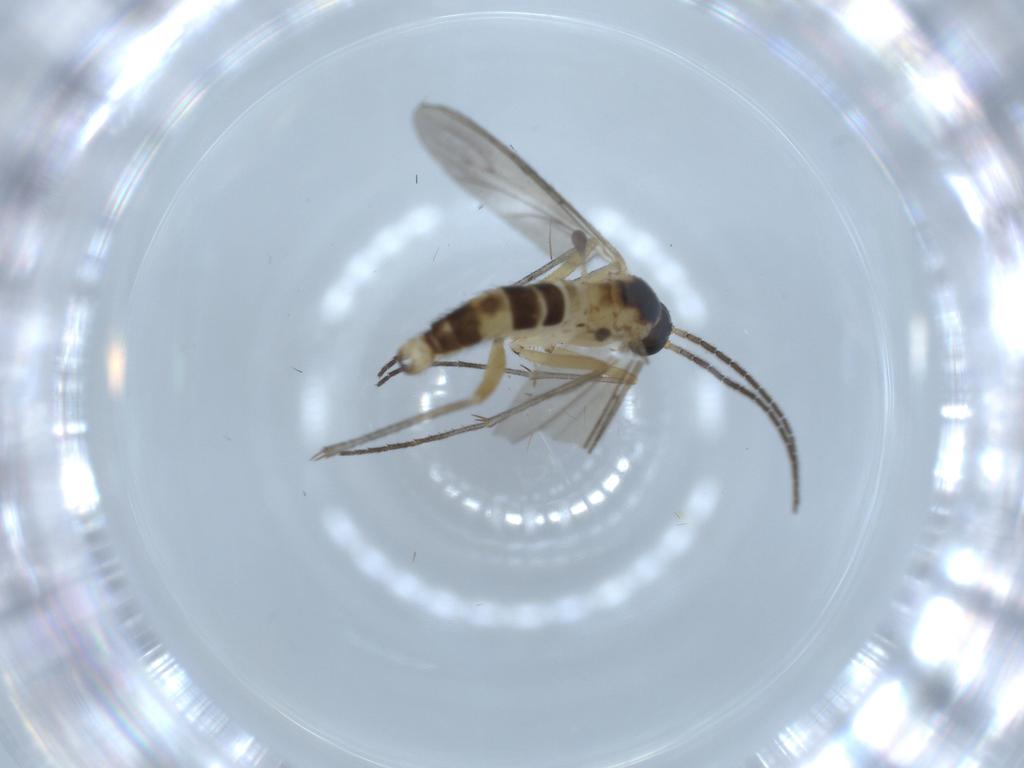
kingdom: Animalia
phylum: Arthropoda
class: Insecta
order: Diptera
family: Sciaridae
